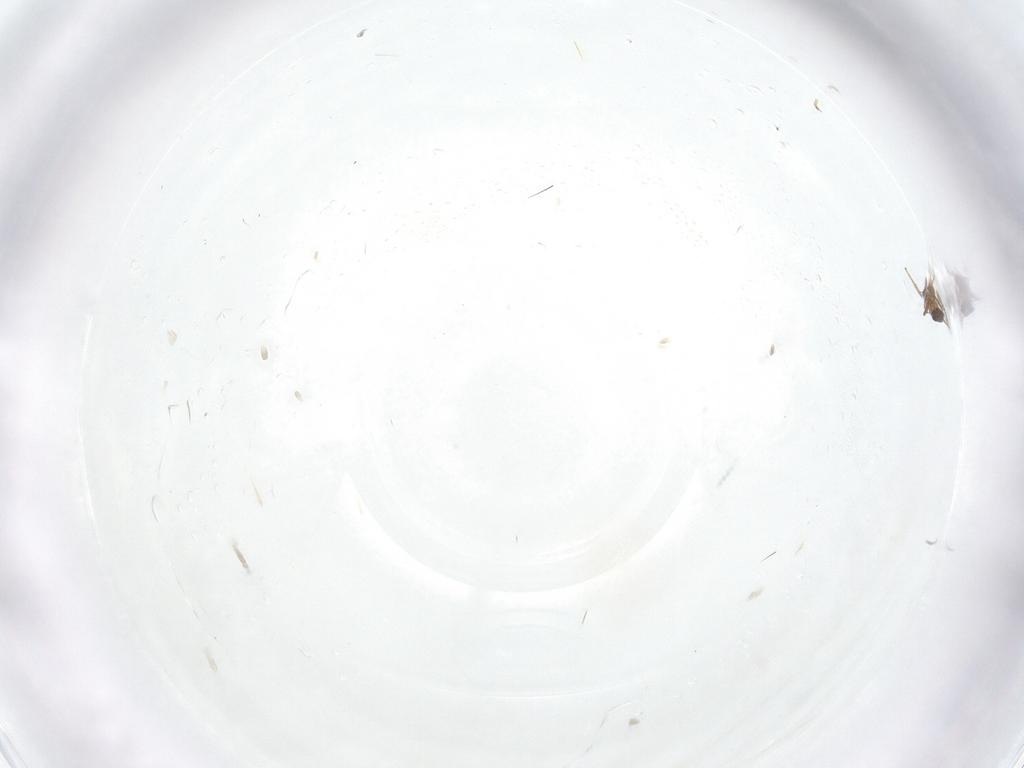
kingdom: Animalia
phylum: Arthropoda
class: Insecta
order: Diptera
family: Chloropidae
